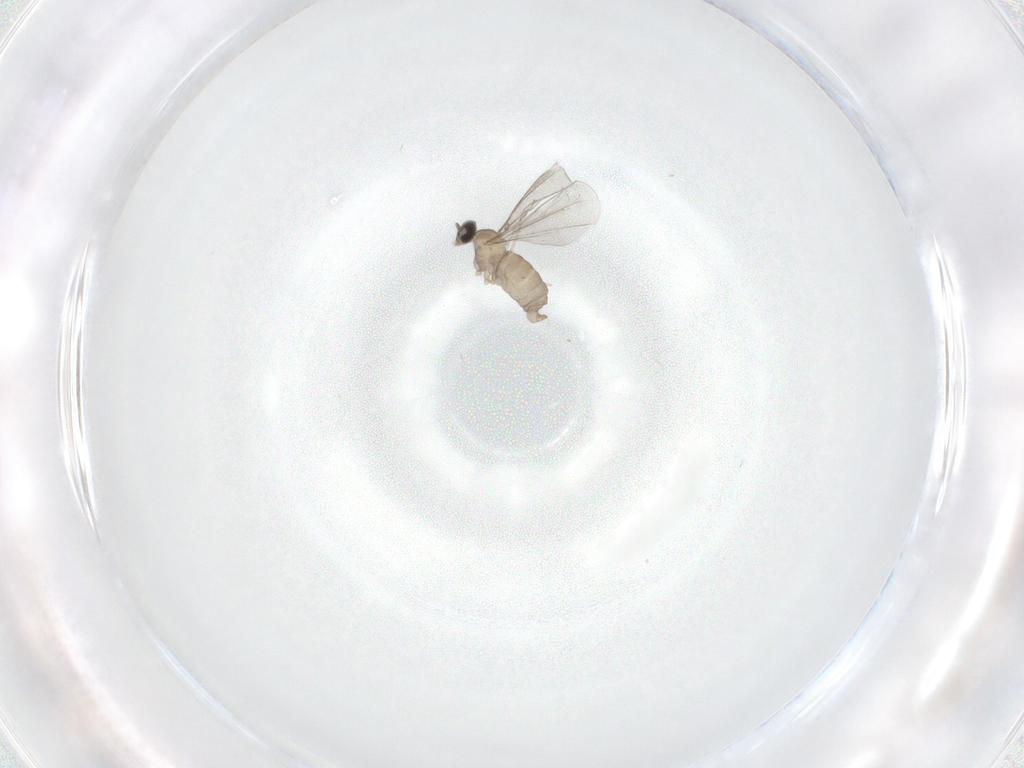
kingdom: Animalia
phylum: Arthropoda
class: Insecta
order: Diptera
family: Cecidomyiidae
